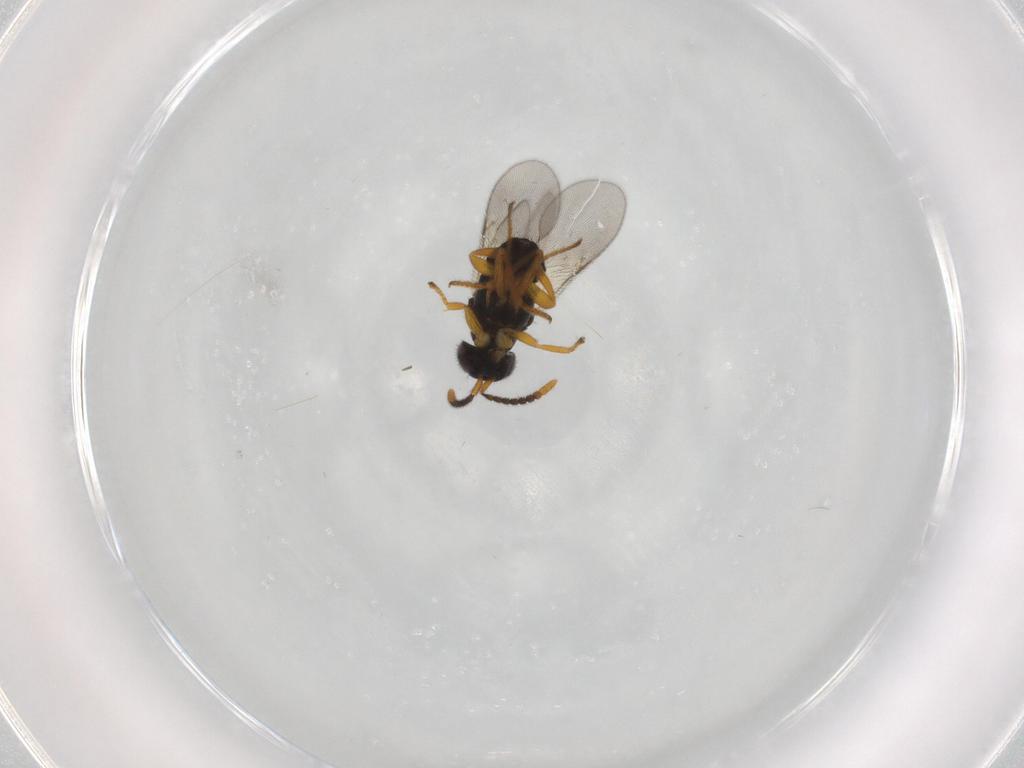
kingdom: Animalia
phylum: Arthropoda
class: Insecta
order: Hymenoptera
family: Encyrtidae
